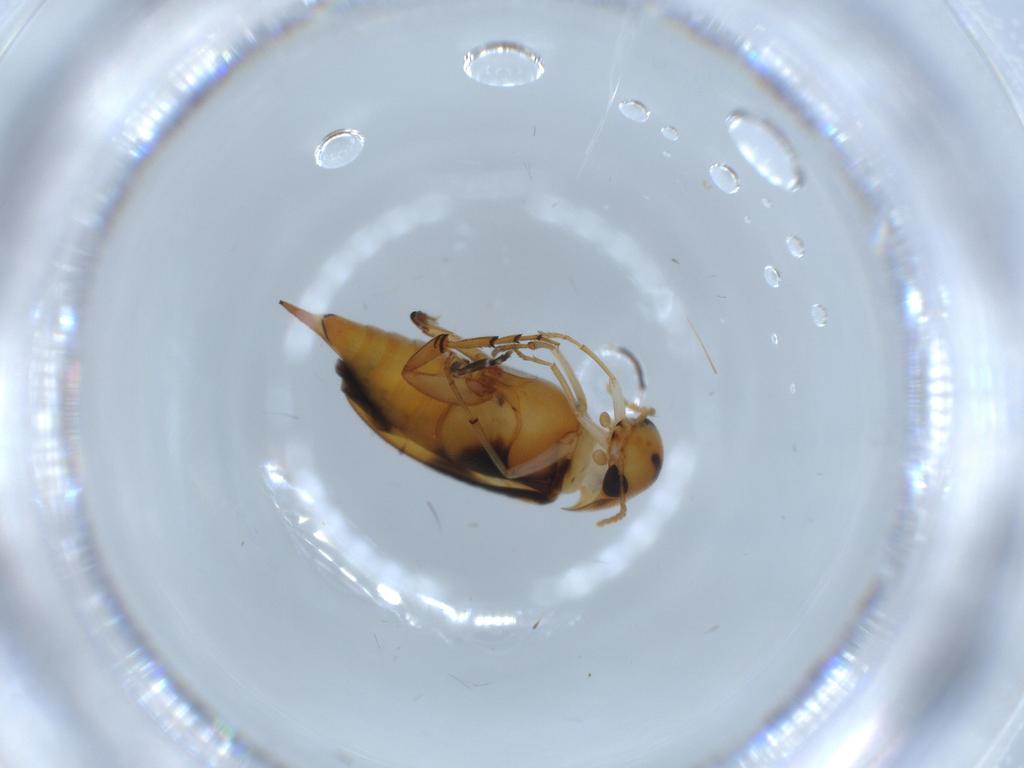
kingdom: Animalia
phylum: Arthropoda
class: Insecta
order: Coleoptera
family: Mordellidae
